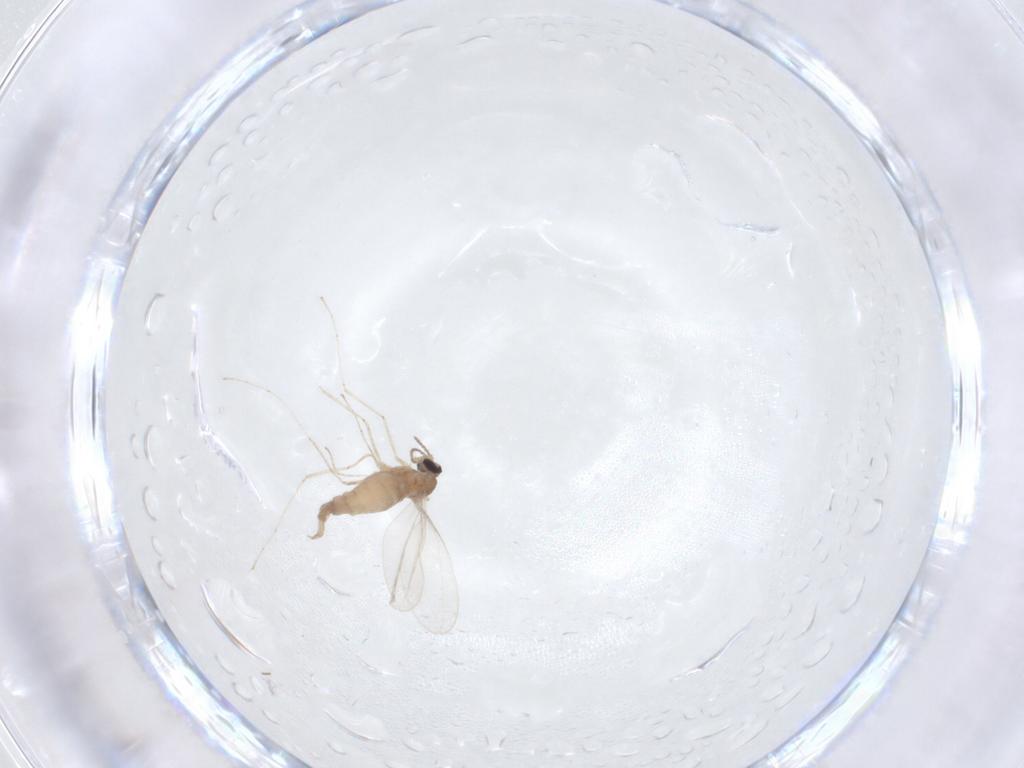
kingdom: Animalia
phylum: Arthropoda
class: Insecta
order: Diptera
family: Cecidomyiidae
